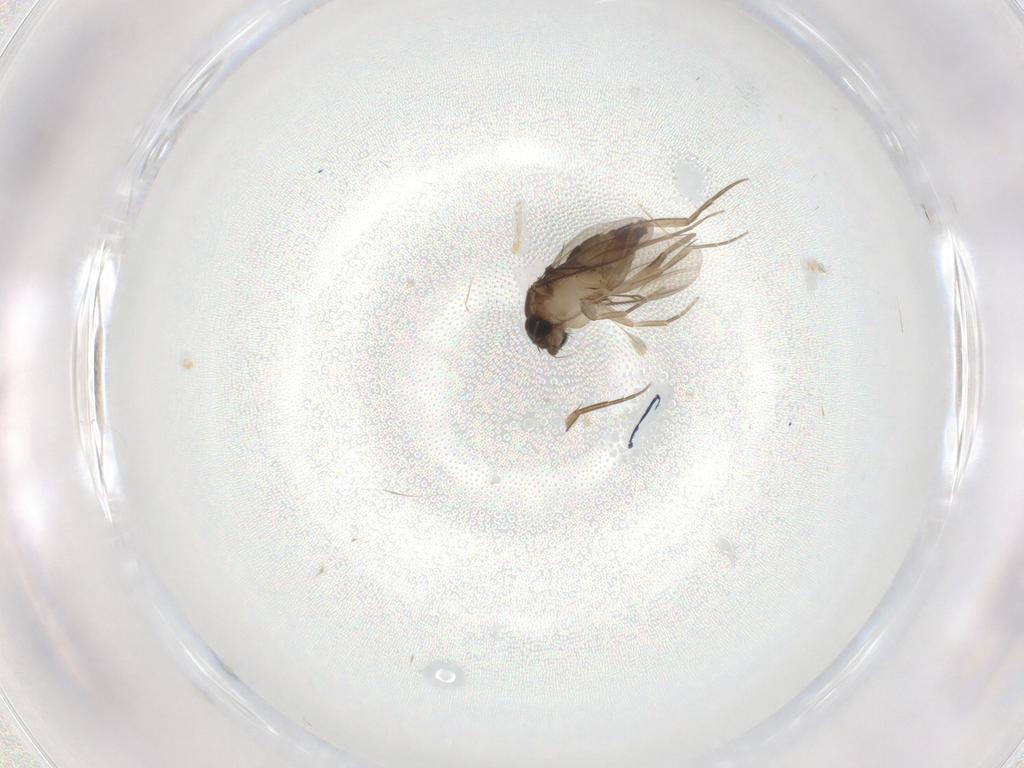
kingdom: Animalia
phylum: Arthropoda
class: Insecta
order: Diptera
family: Phoridae
